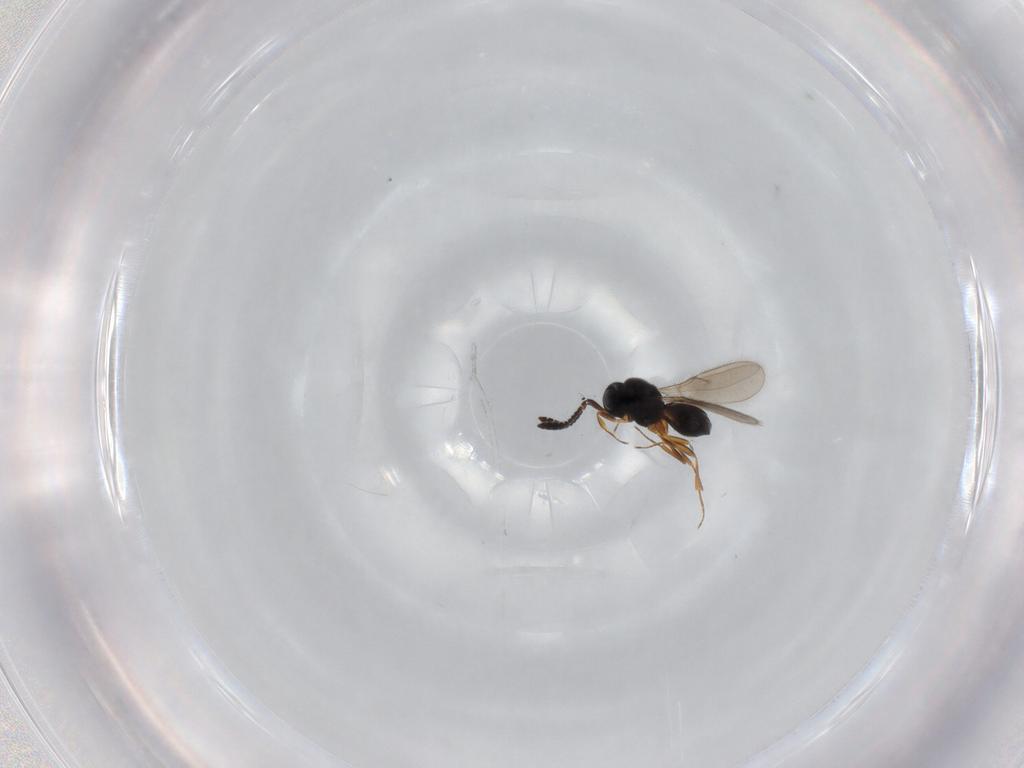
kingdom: Animalia
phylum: Arthropoda
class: Insecta
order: Hymenoptera
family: Scelionidae
